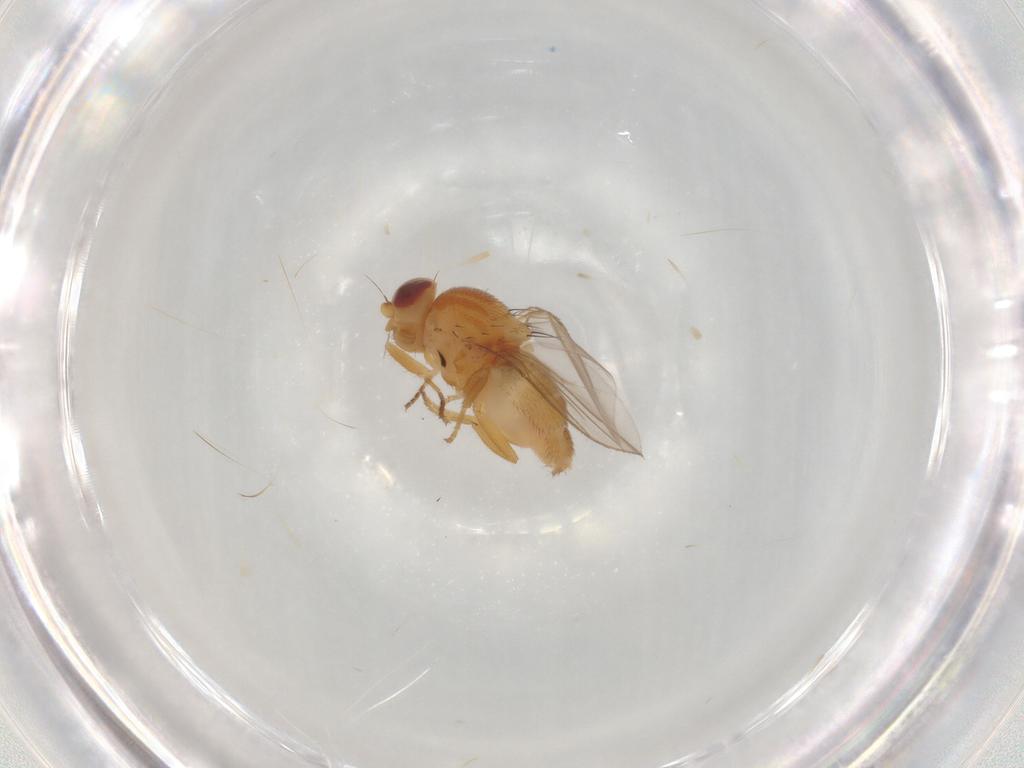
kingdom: Animalia
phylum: Arthropoda
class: Insecta
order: Diptera
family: Chloropidae
